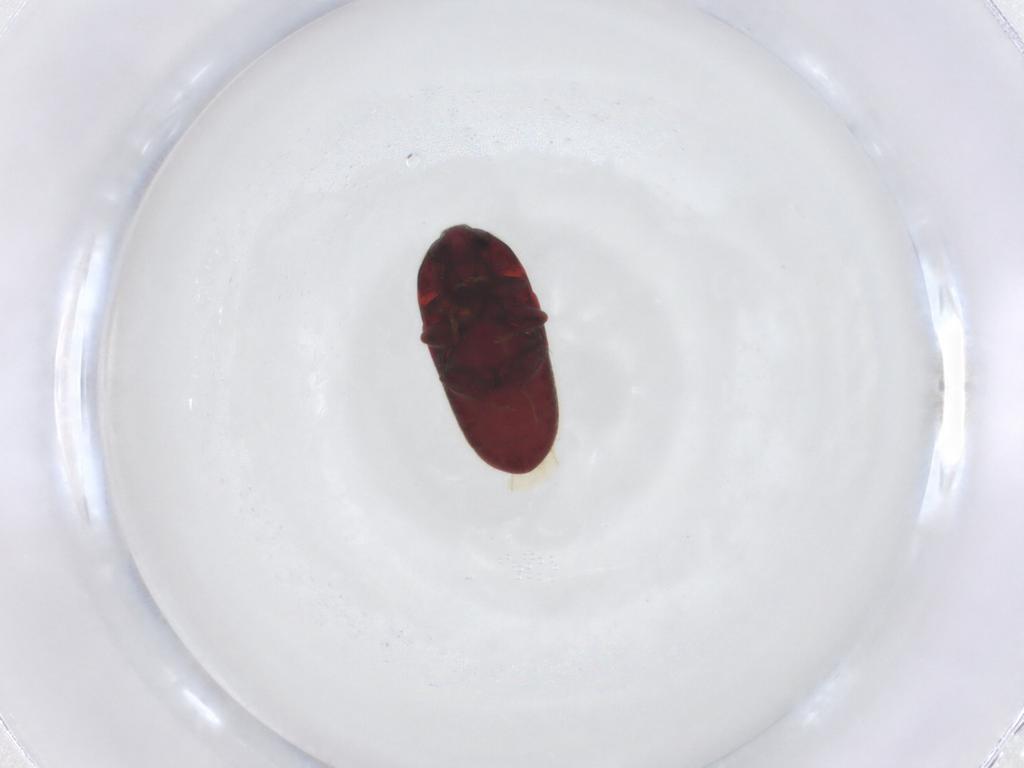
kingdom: Animalia
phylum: Arthropoda
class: Insecta
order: Coleoptera
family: Throscidae
